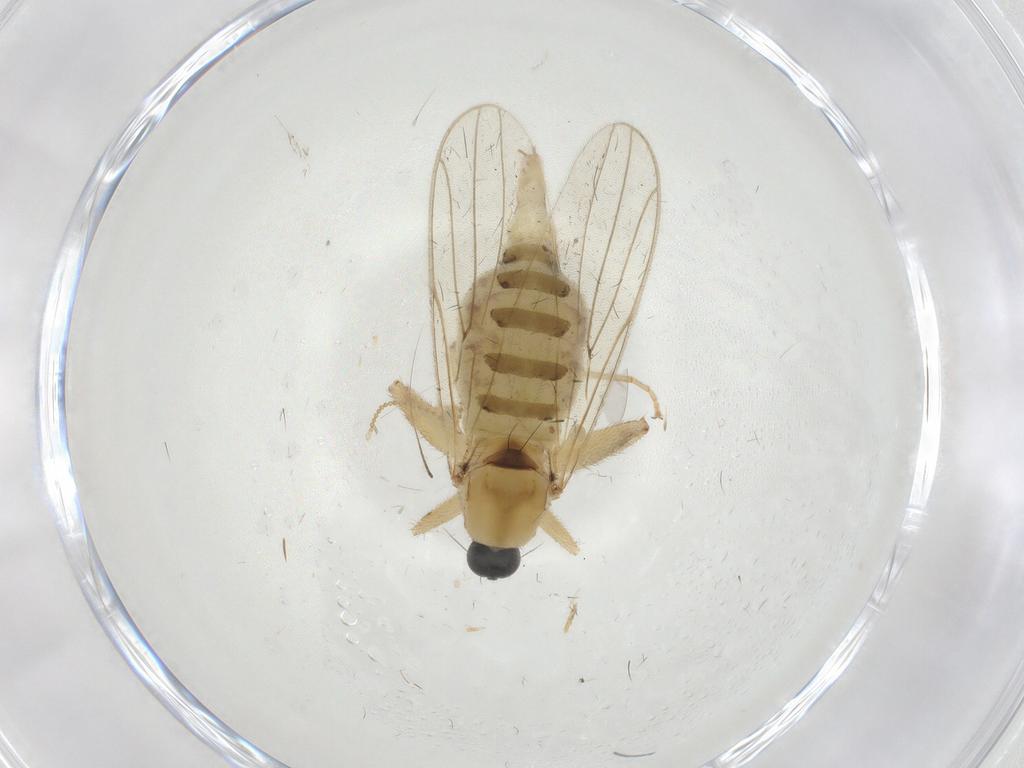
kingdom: Animalia
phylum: Arthropoda
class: Insecta
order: Diptera
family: Hybotidae
